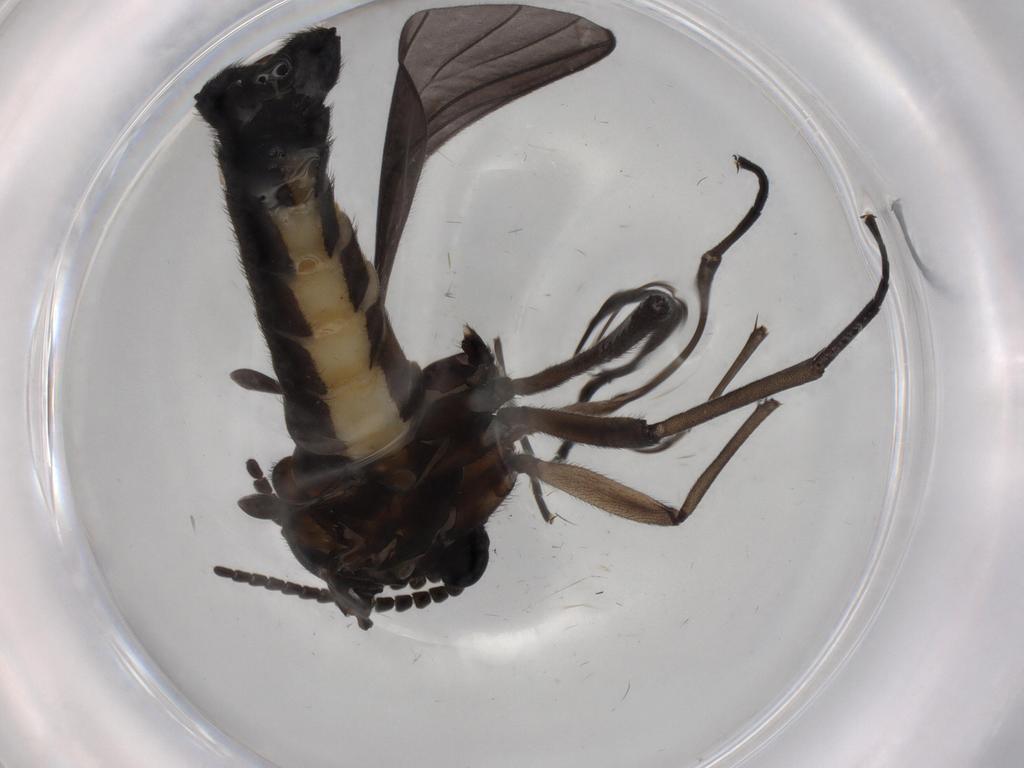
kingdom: Animalia
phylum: Arthropoda
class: Insecta
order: Diptera
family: Sciaridae
